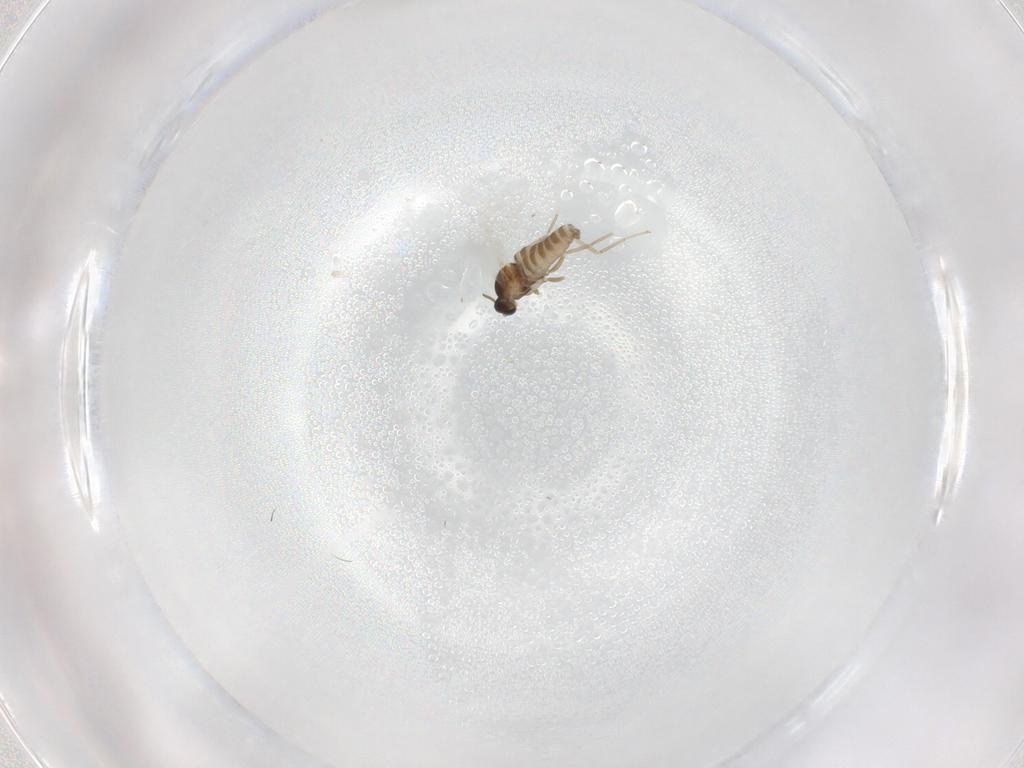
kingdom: Animalia
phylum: Arthropoda
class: Insecta
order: Diptera
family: Cecidomyiidae
